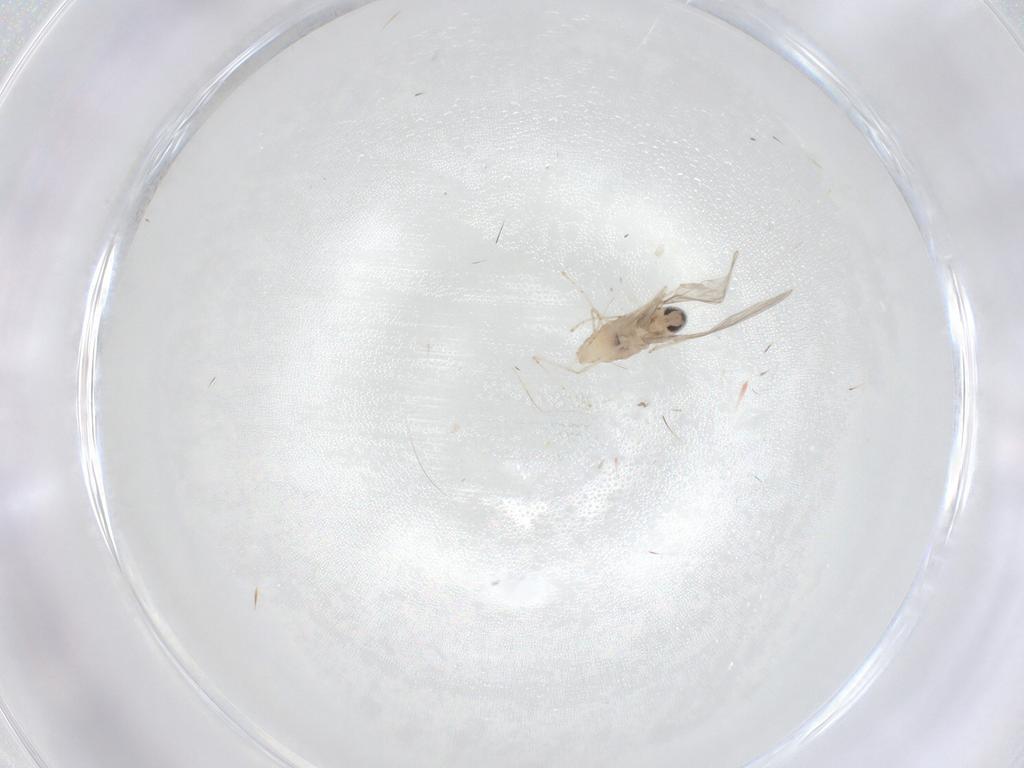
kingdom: Animalia
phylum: Arthropoda
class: Insecta
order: Diptera
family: Cecidomyiidae
